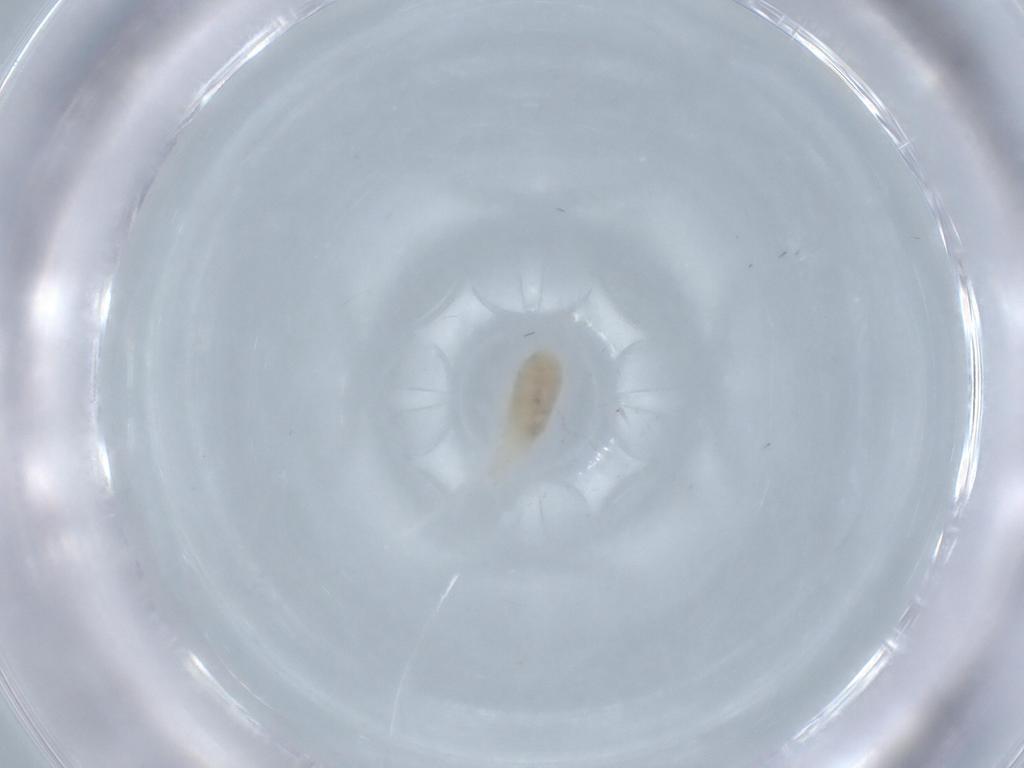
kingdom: Animalia
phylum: Arthropoda
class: Arachnida
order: Trombidiformes
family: Rhagidiidae
